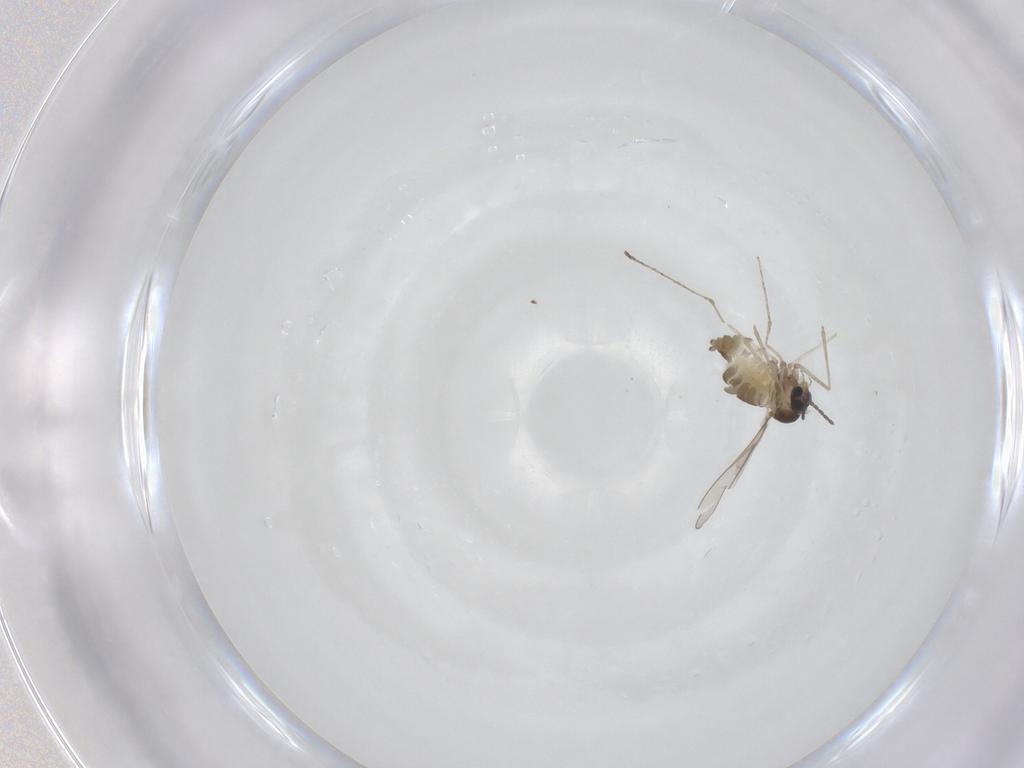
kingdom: Animalia
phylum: Arthropoda
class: Insecta
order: Diptera
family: Cecidomyiidae
